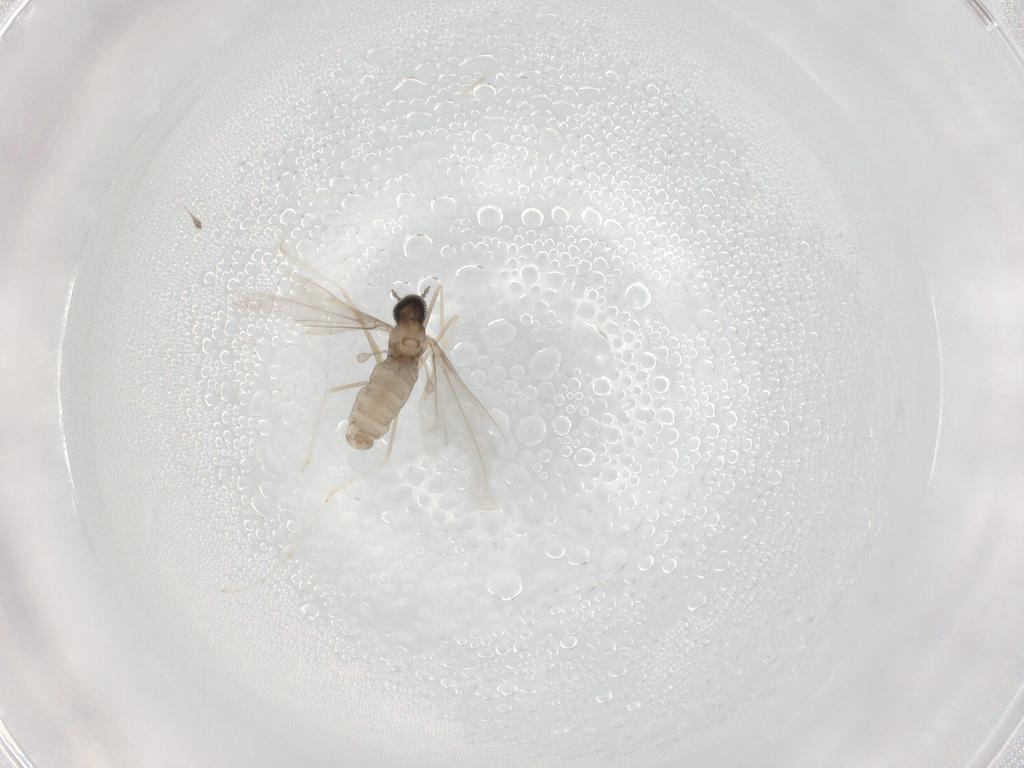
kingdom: Animalia
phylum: Arthropoda
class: Insecta
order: Diptera
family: Cecidomyiidae
